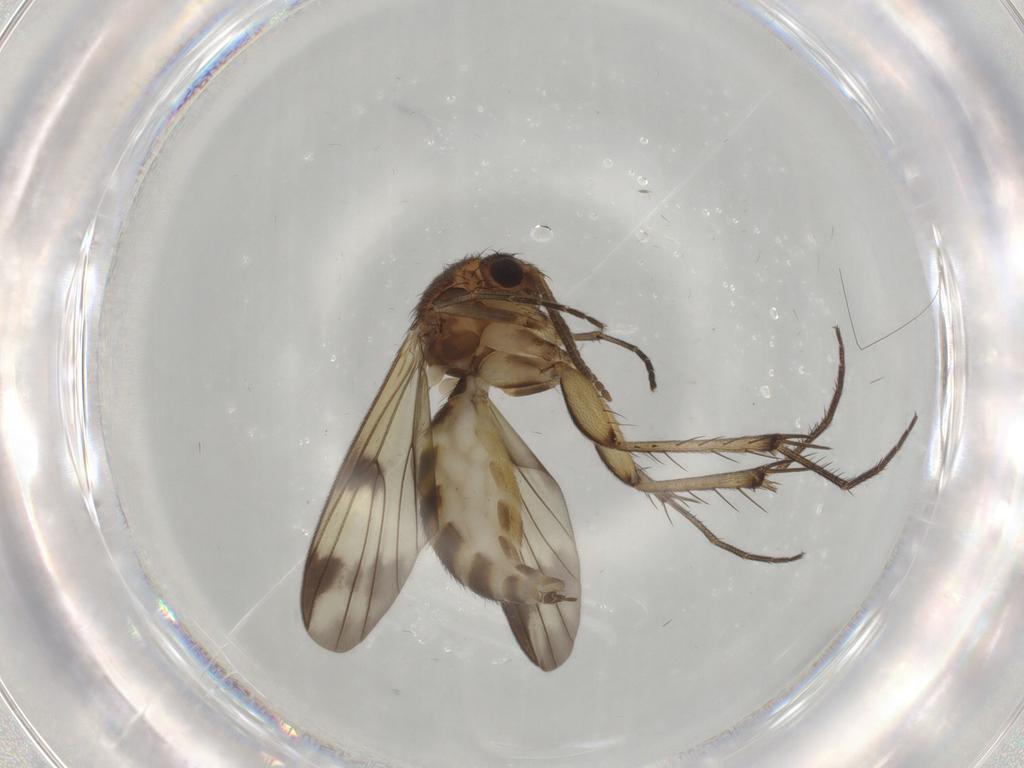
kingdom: Animalia
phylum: Arthropoda
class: Insecta
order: Diptera
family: Mycetophilidae
